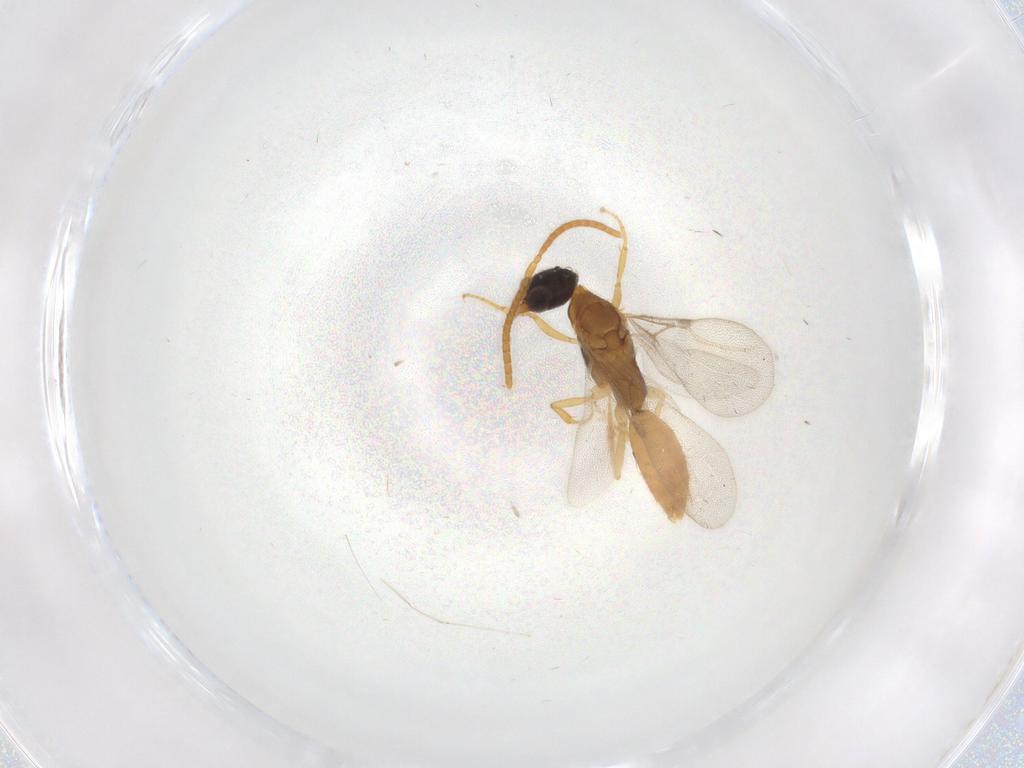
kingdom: Animalia
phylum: Arthropoda
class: Insecta
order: Hymenoptera
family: Bethylidae
